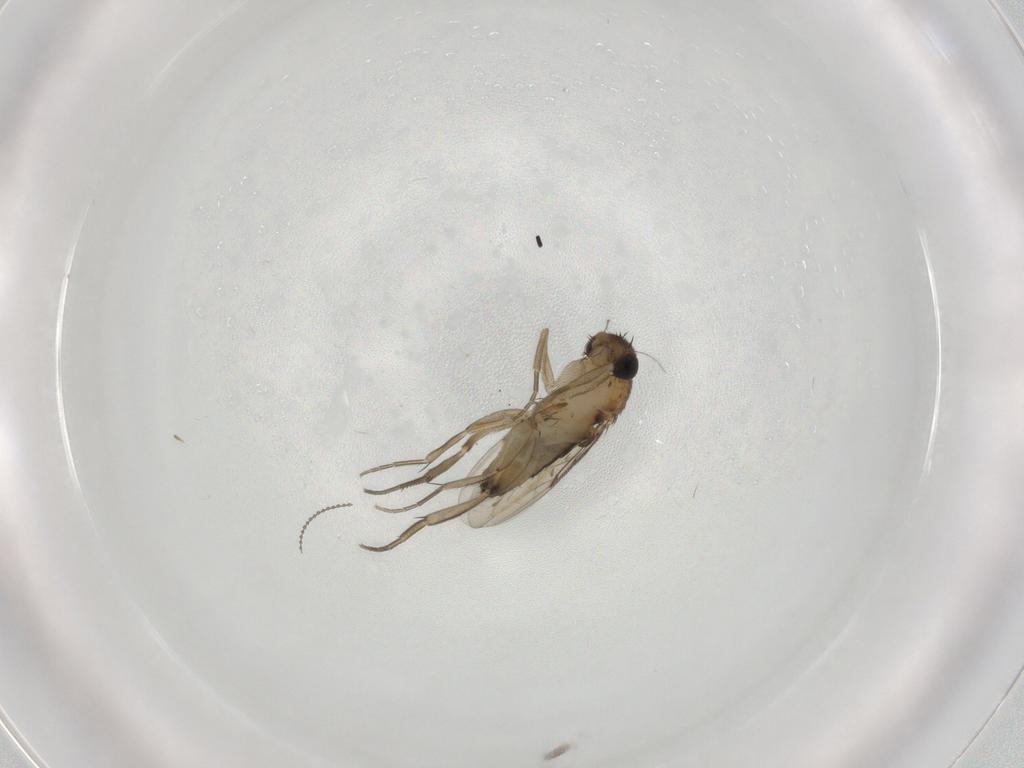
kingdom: Animalia
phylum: Arthropoda
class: Insecta
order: Diptera
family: Phoridae
